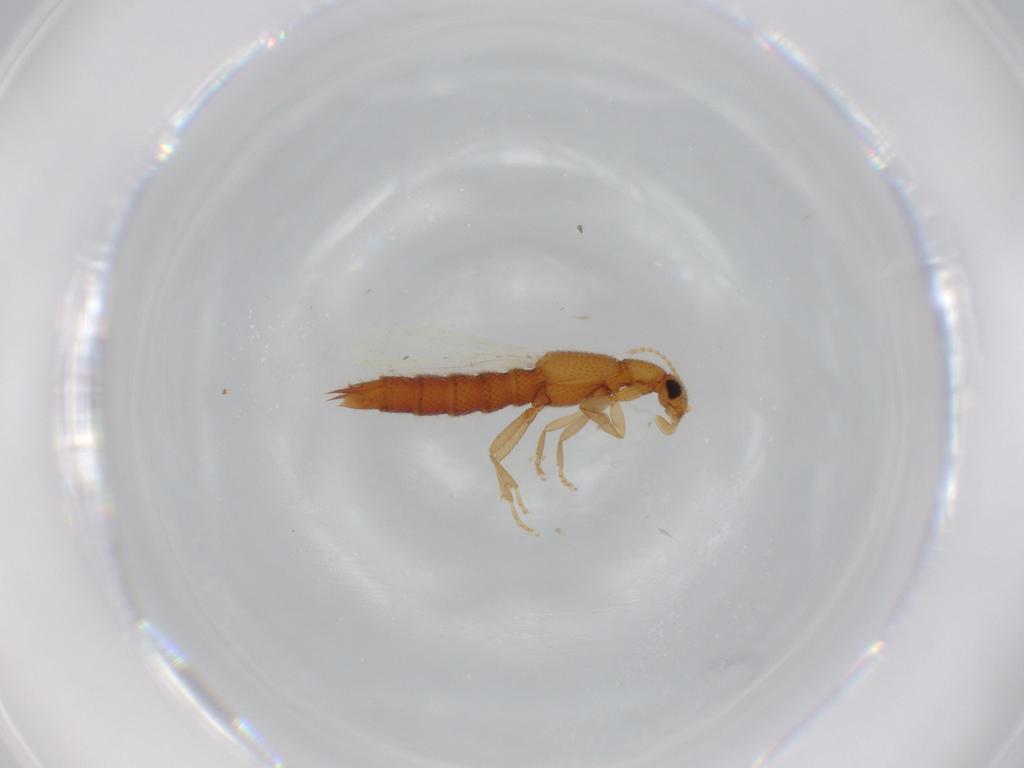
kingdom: Animalia
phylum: Arthropoda
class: Insecta
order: Coleoptera
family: Staphylinidae
